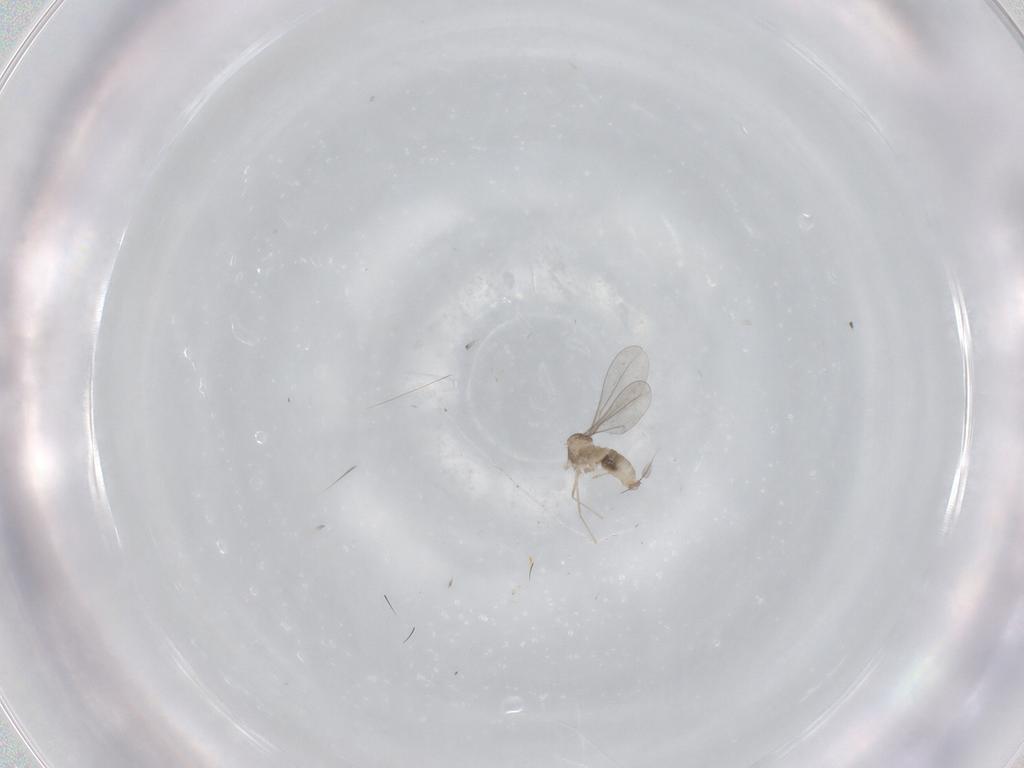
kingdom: Animalia
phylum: Arthropoda
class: Insecta
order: Diptera
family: Cecidomyiidae
